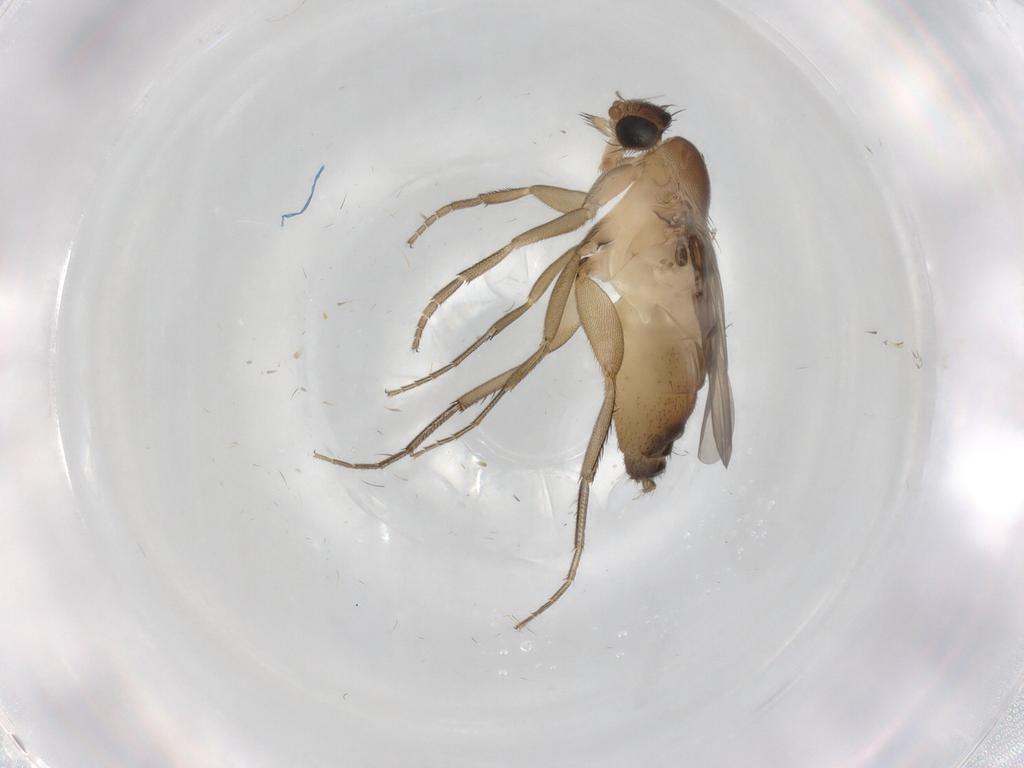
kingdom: Animalia
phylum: Arthropoda
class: Insecta
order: Diptera
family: Phoridae
